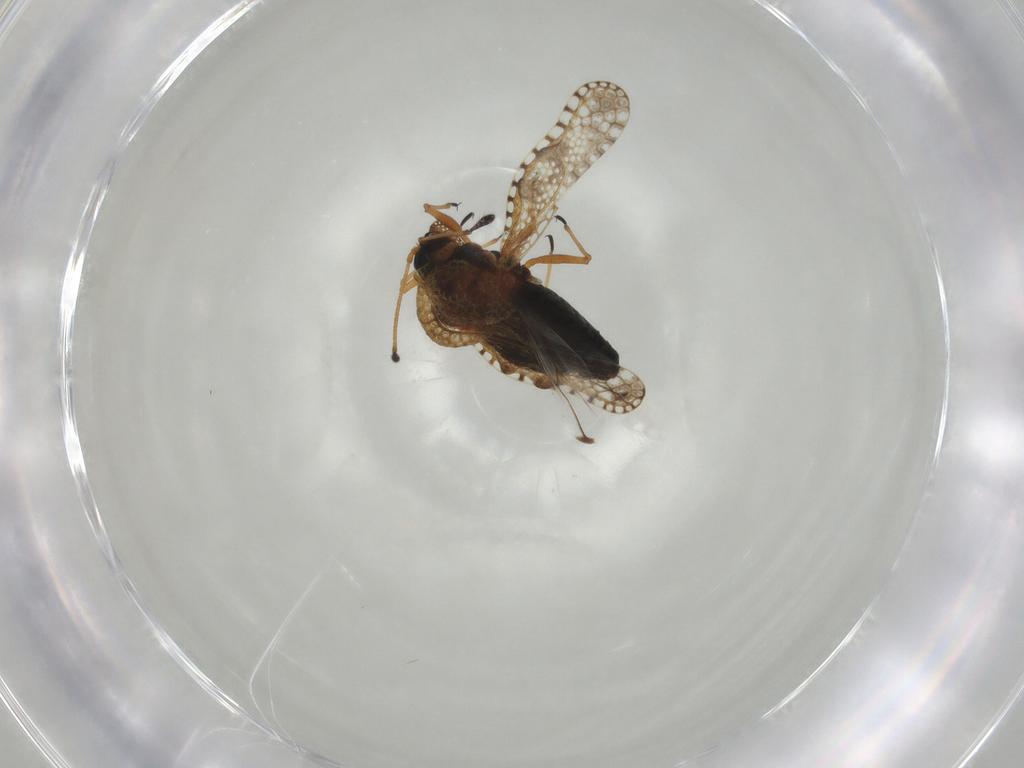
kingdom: Animalia
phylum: Arthropoda
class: Insecta
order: Hemiptera
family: Tingidae
